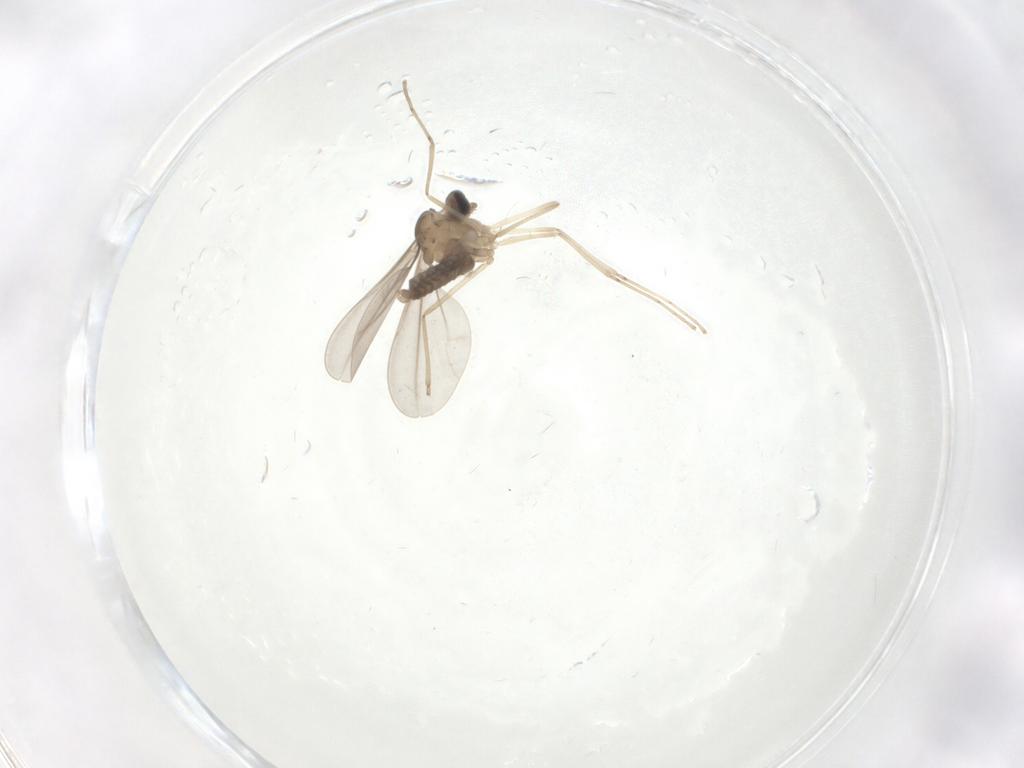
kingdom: Animalia
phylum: Arthropoda
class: Insecta
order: Diptera
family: Cecidomyiidae
